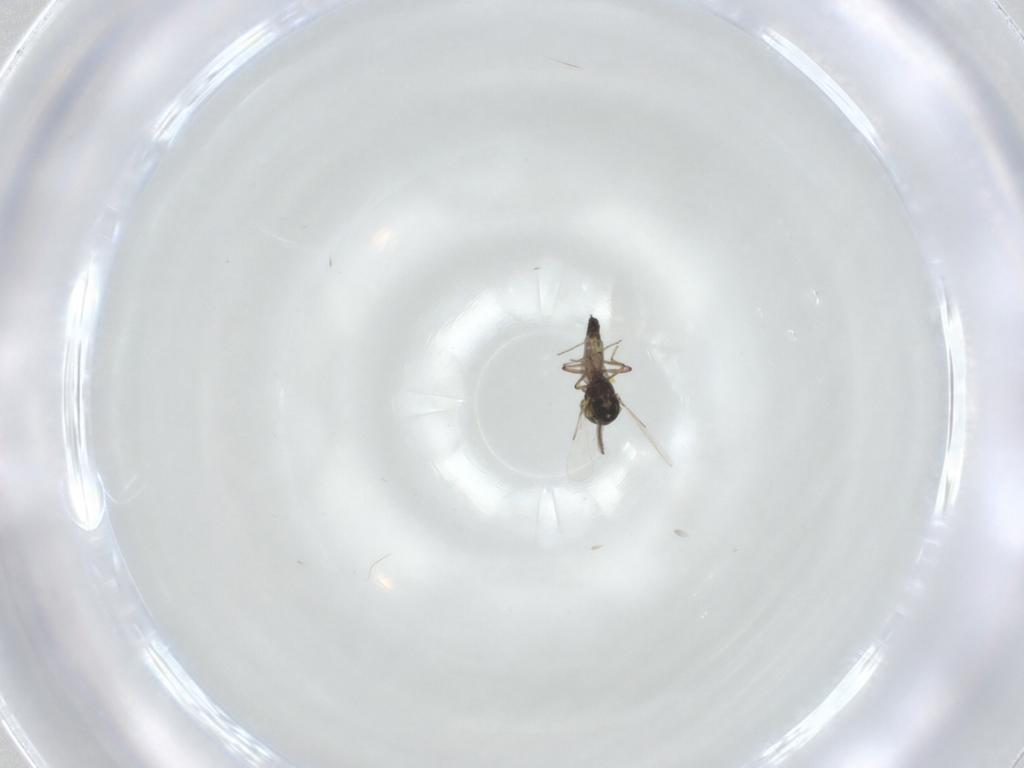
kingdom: Animalia
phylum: Arthropoda
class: Insecta
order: Diptera
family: Ceratopogonidae
